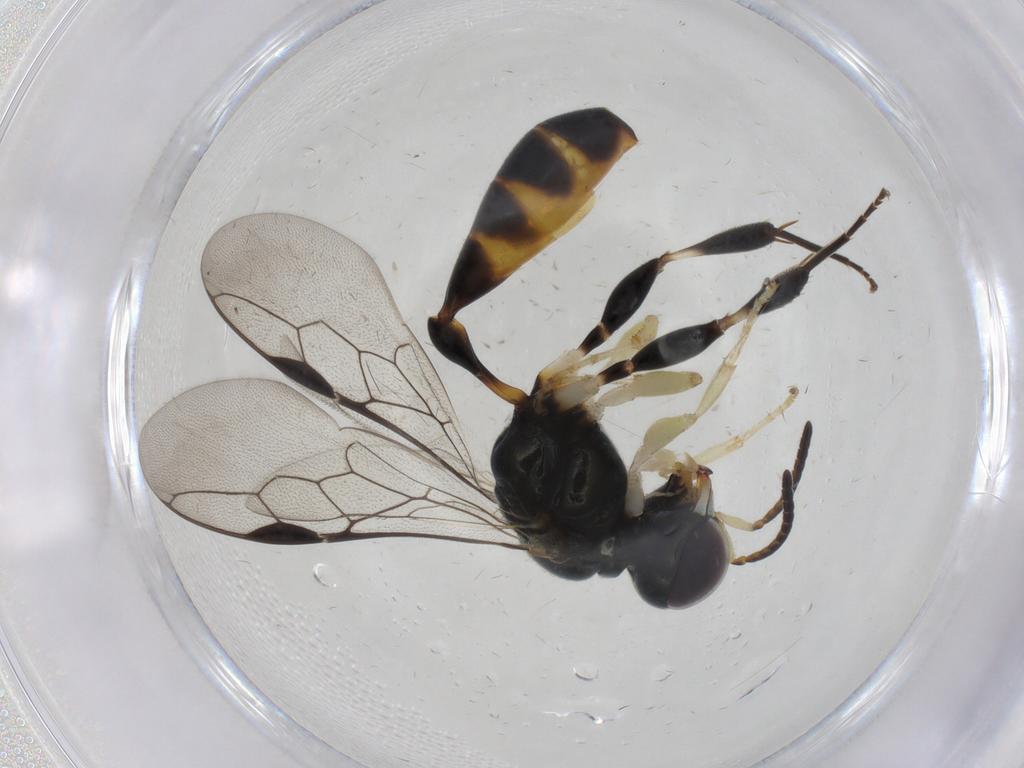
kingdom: Animalia
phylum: Arthropoda
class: Insecta
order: Hymenoptera
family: Crabronidae
